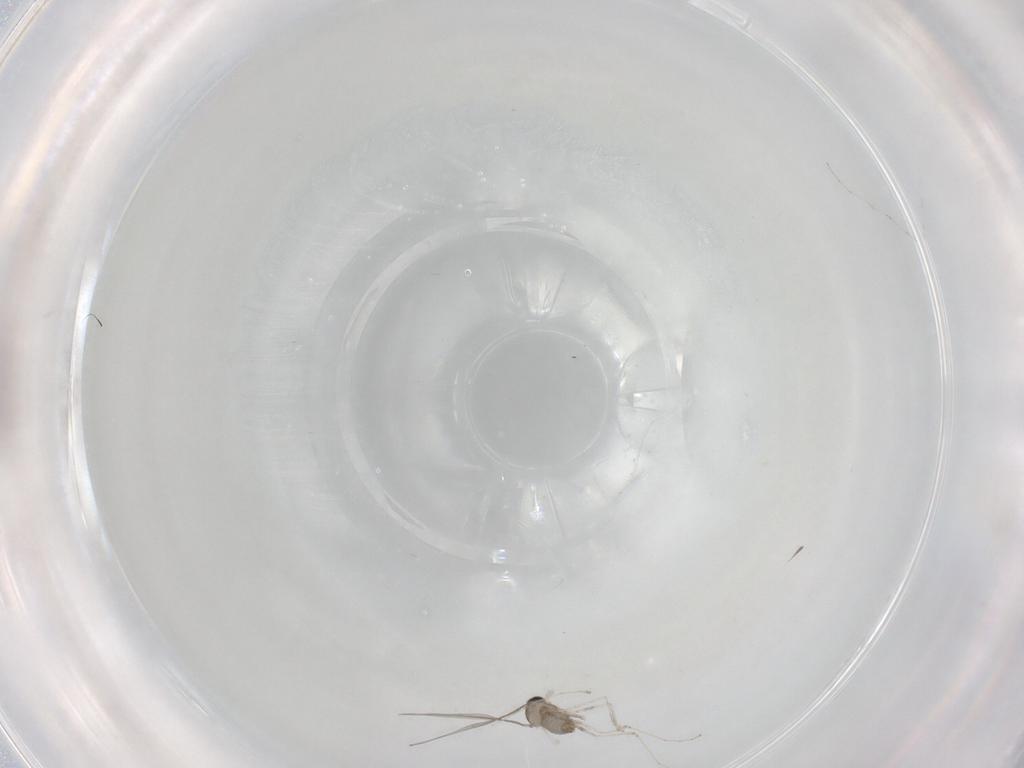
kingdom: Animalia
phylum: Arthropoda
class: Insecta
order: Diptera
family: Cecidomyiidae
